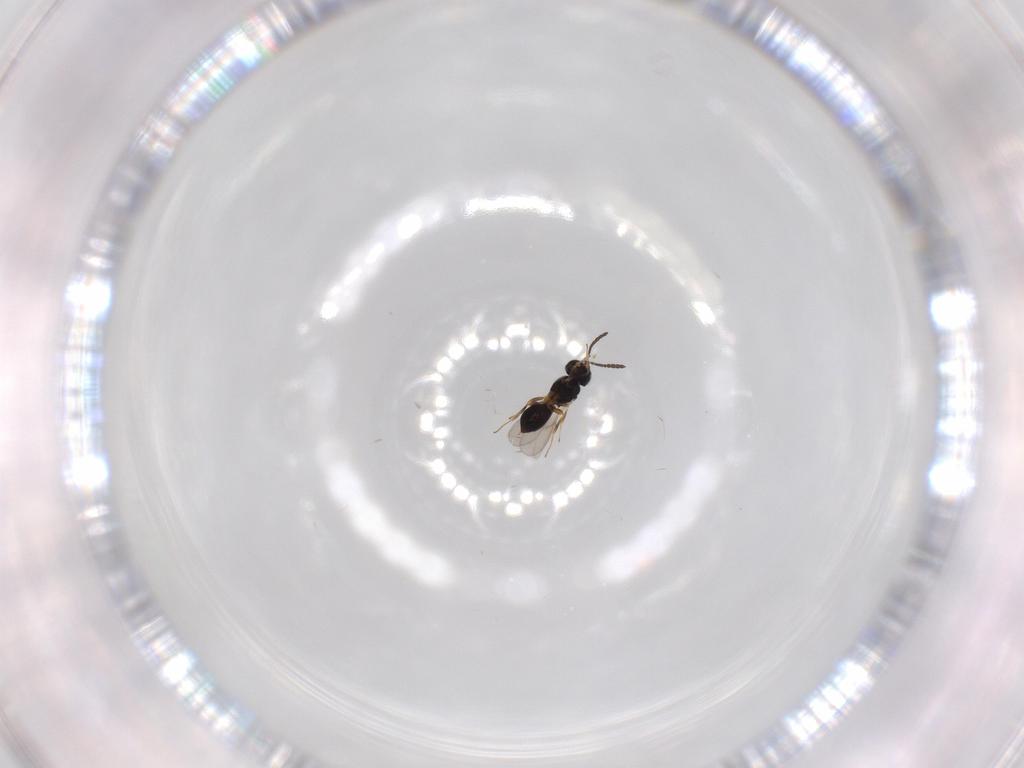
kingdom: Animalia
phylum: Arthropoda
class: Insecta
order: Hymenoptera
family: Scelionidae
